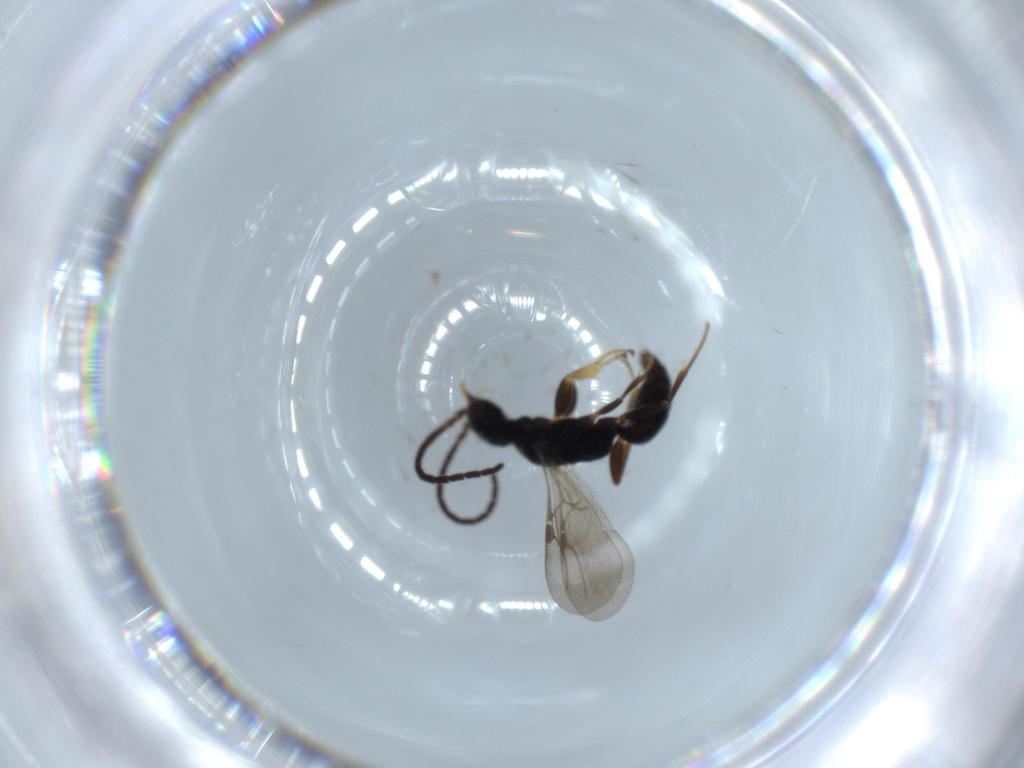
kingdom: Animalia
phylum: Arthropoda
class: Insecta
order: Hymenoptera
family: Bethylidae
